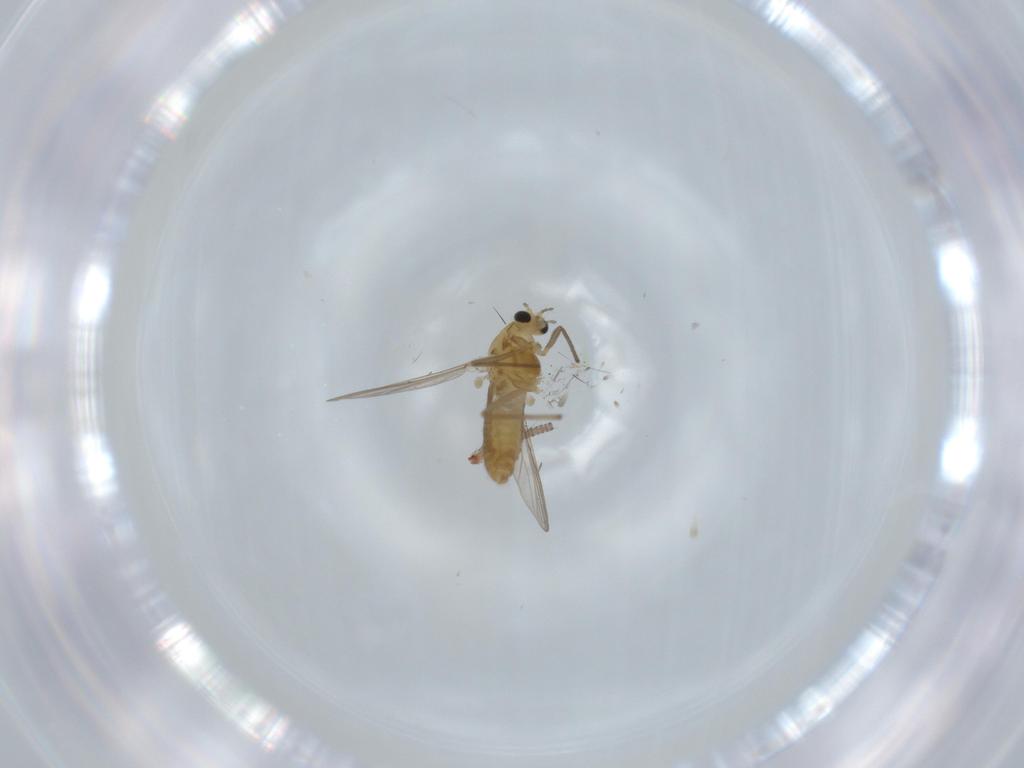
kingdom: Animalia
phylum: Arthropoda
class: Insecta
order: Diptera
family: Chironomidae
